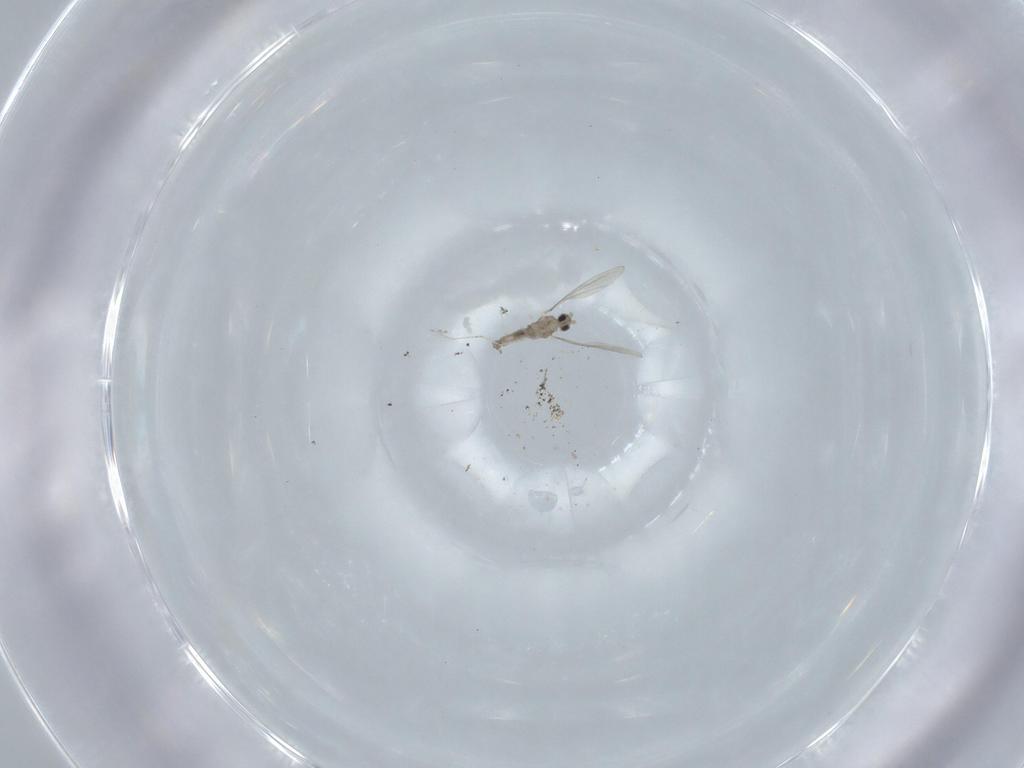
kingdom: Animalia
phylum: Arthropoda
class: Insecta
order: Diptera
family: Cecidomyiidae
